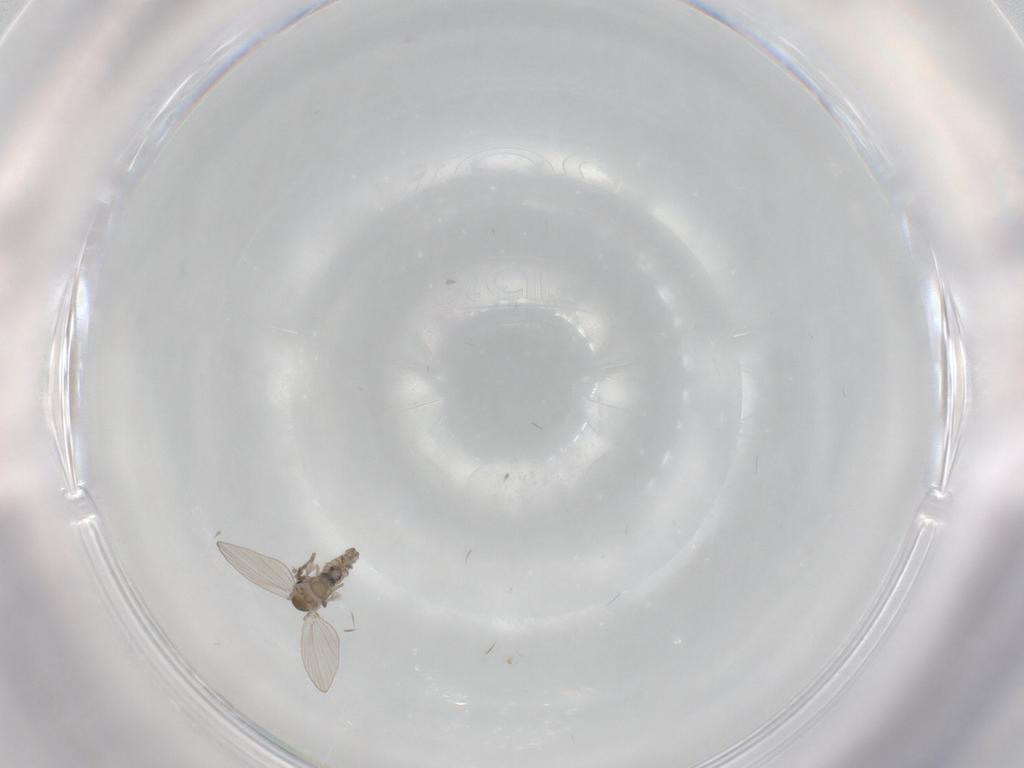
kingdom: Animalia
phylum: Arthropoda
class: Insecta
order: Diptera
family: Psychodidae
